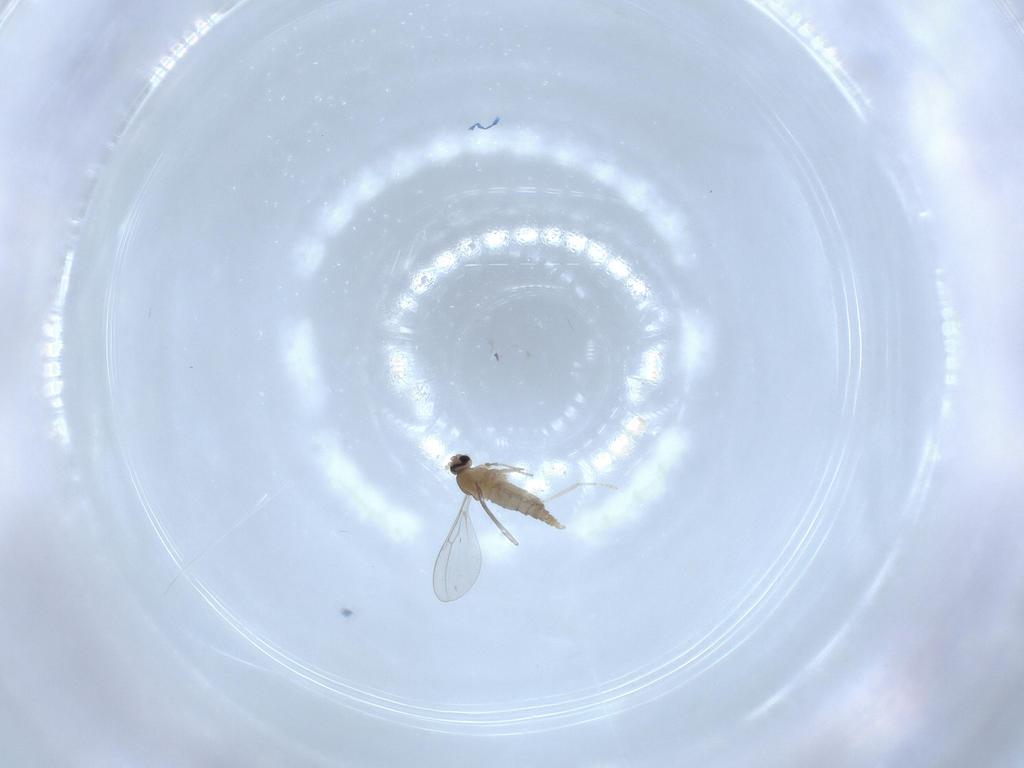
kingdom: Animalia
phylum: Arthropoda
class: Insecta
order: Diptera
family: Cecidomyiidae
